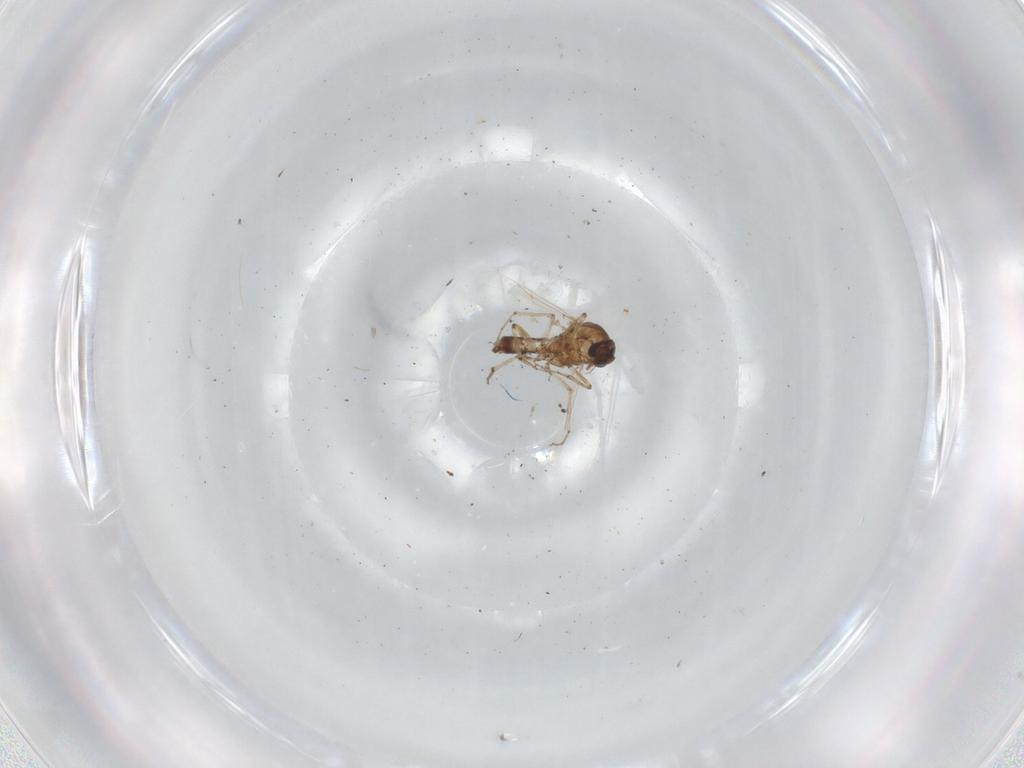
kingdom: Animalia
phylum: Arthropoda
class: Insecta
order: Diptera
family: Ceratopogonidae
